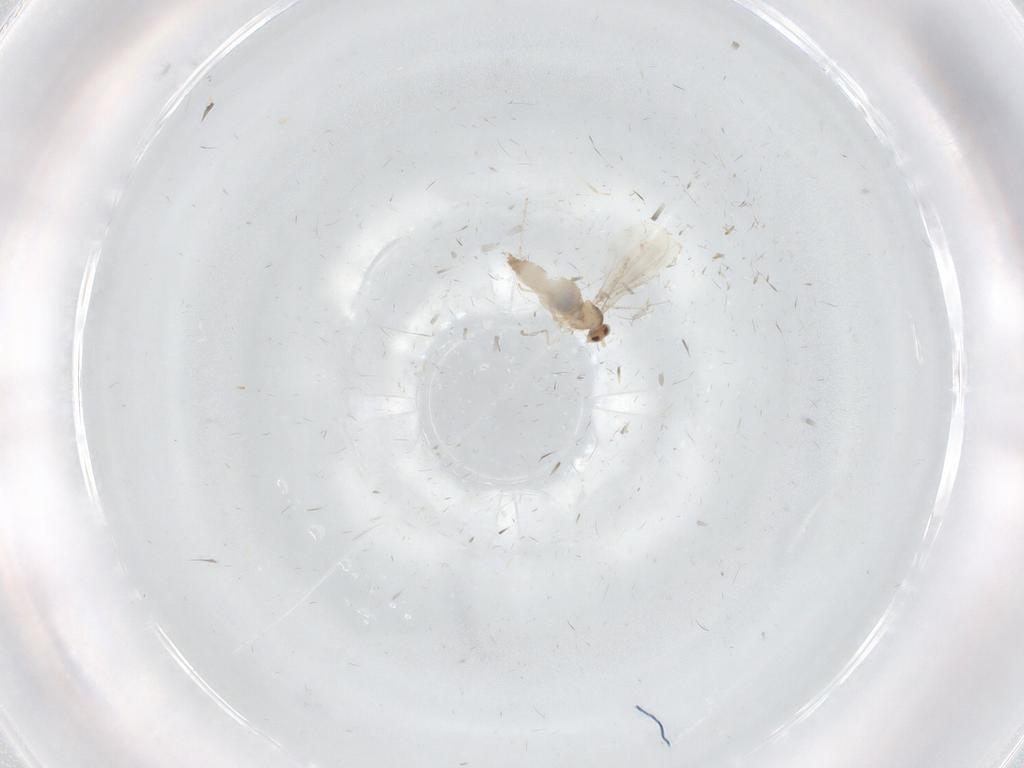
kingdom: Animalia
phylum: Arthropoda
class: Insecta
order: Diptera
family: Cecidomyiidae
